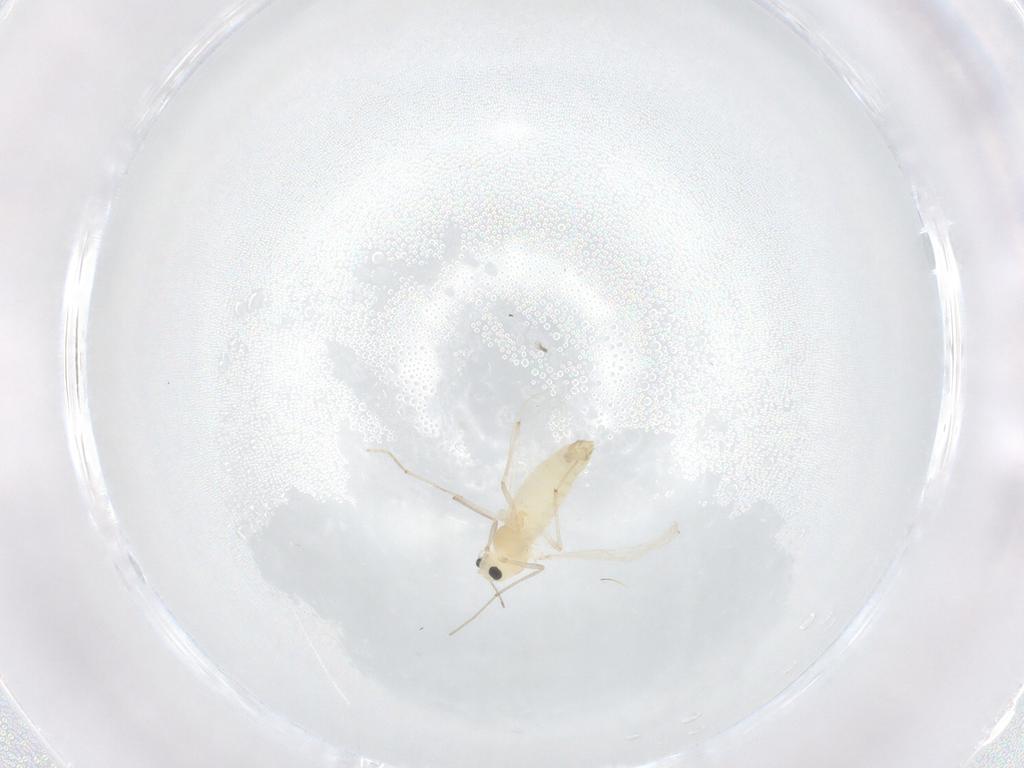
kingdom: Animalia
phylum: Arthropoda
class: Insecta
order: Diptera
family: Chironomidae
